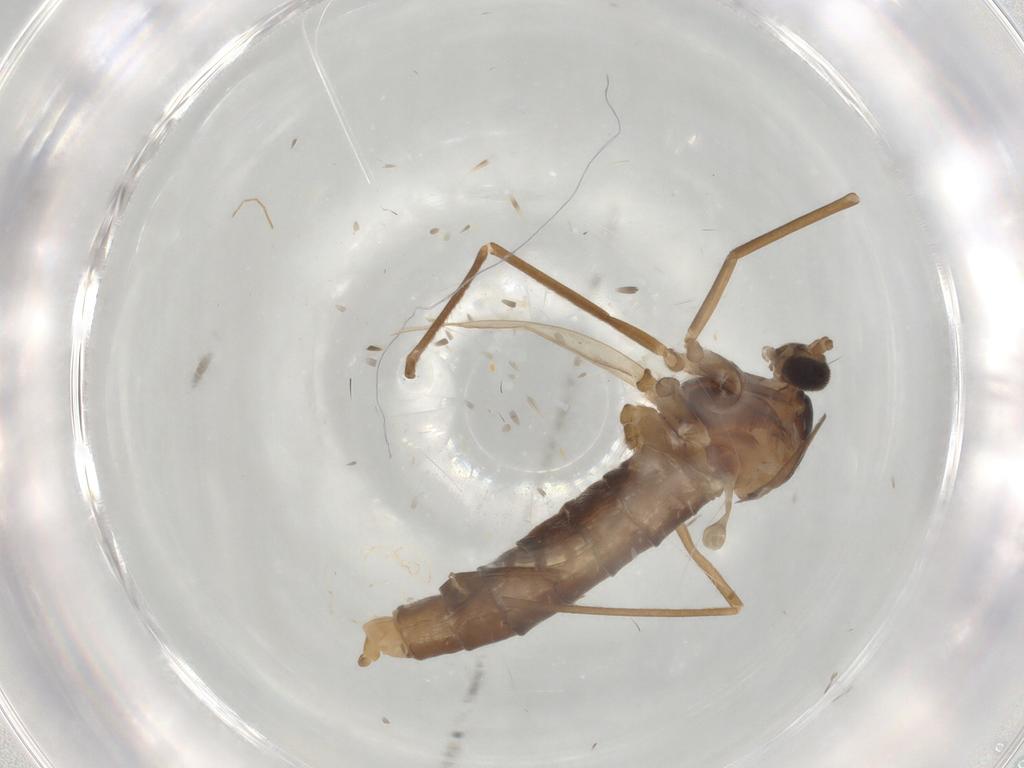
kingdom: Animalia
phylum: Arthropoda
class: Insecta
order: Diptera
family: Cecidomyiidae
